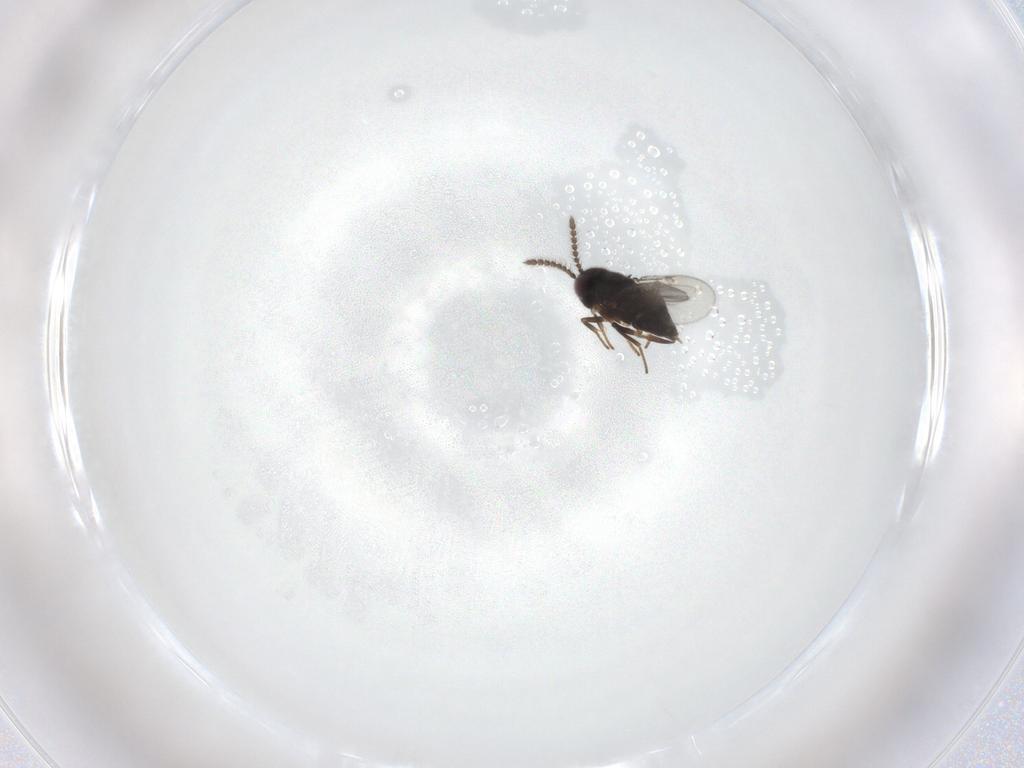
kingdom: Animalia
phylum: Arthropoda
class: Insecta
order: Hymenoptera
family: Encyrtidae
